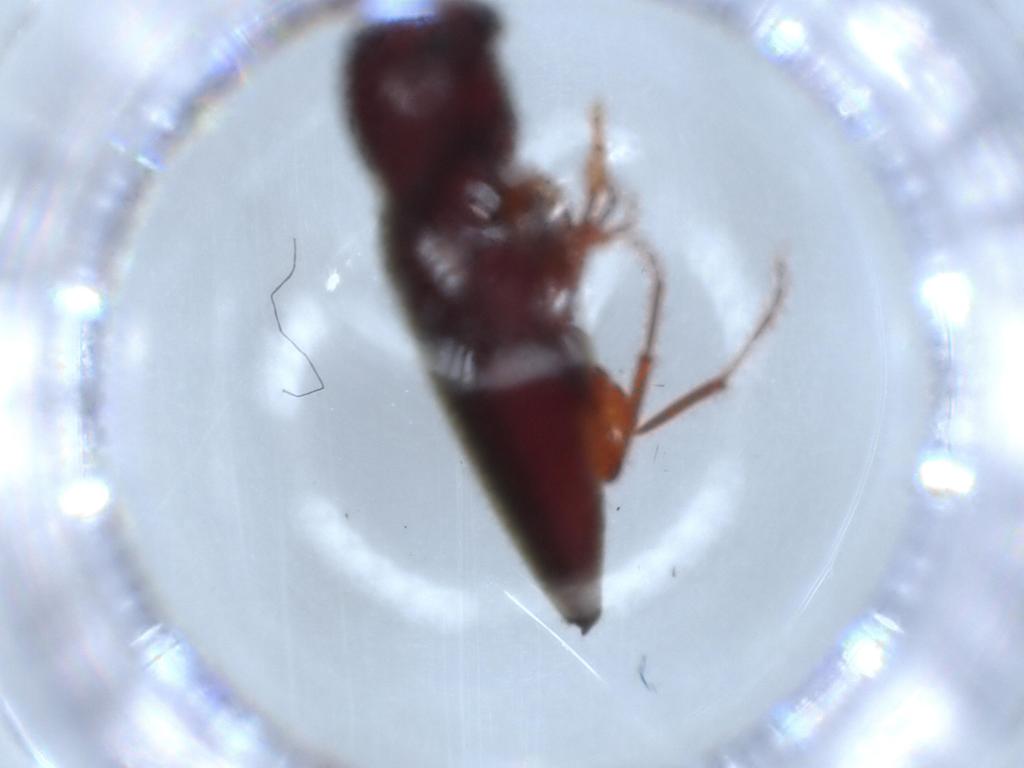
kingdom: Animalia
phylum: Arthropoda
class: Insecta
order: Coleoptera
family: Eucnemidae
